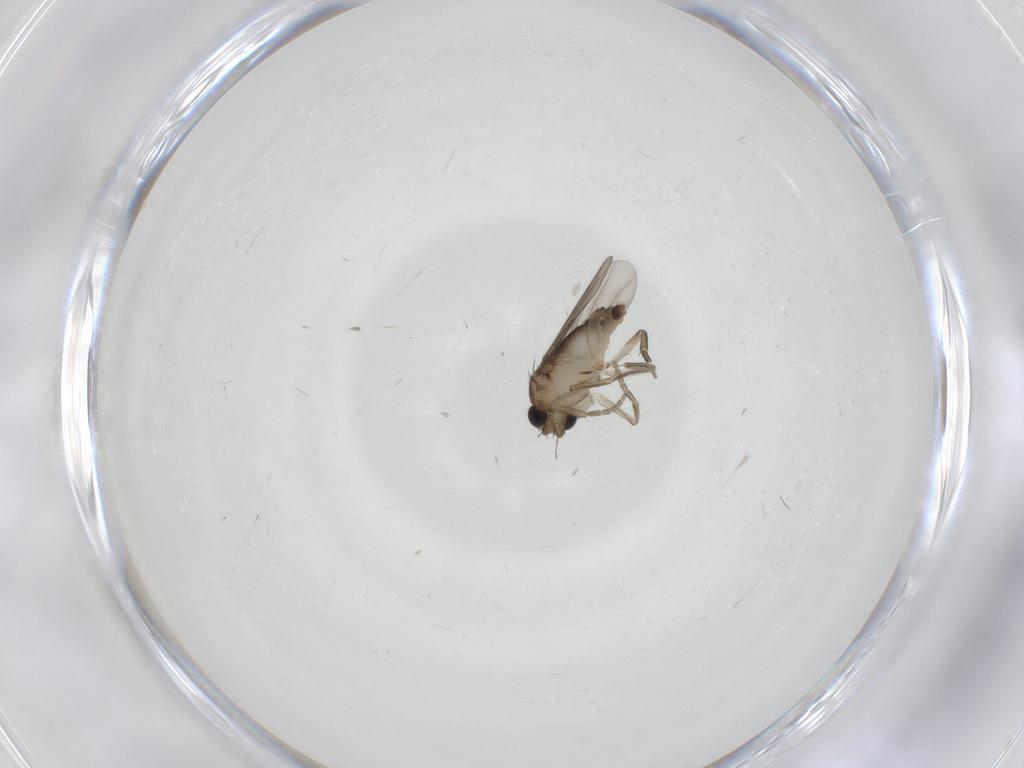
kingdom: Animalia
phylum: Arthropoda
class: Insecta
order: Diptera
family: Phoridae
